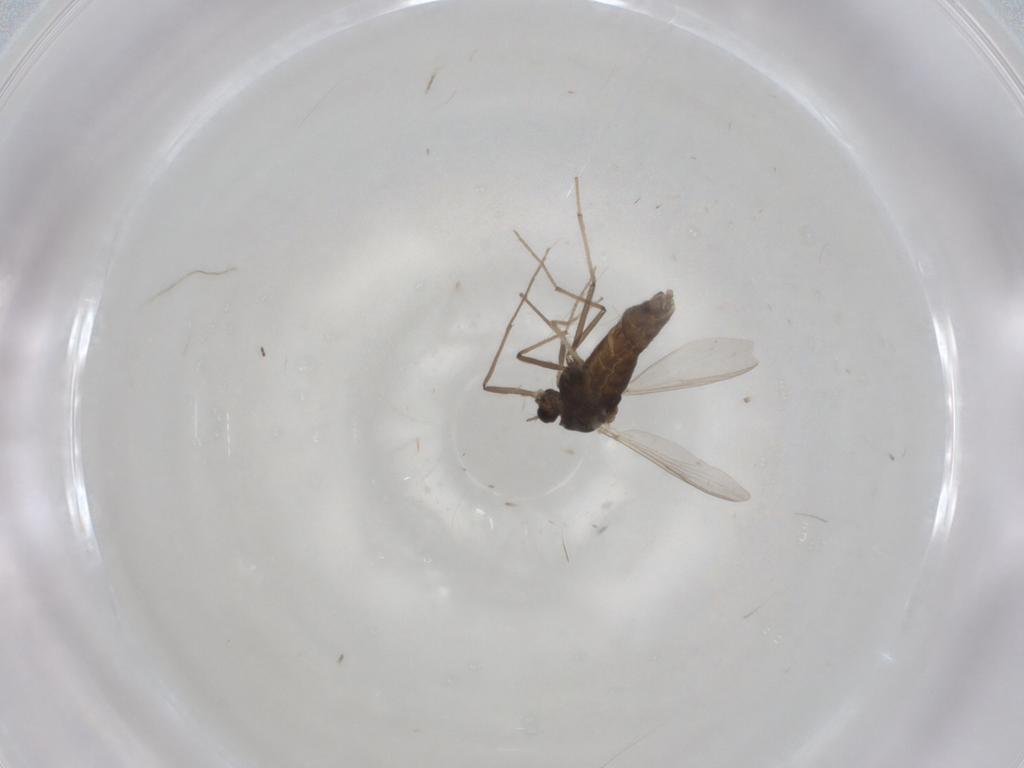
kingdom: Animalia
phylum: Arthropoda
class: Insecta
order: Diptera
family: Chironomidae
